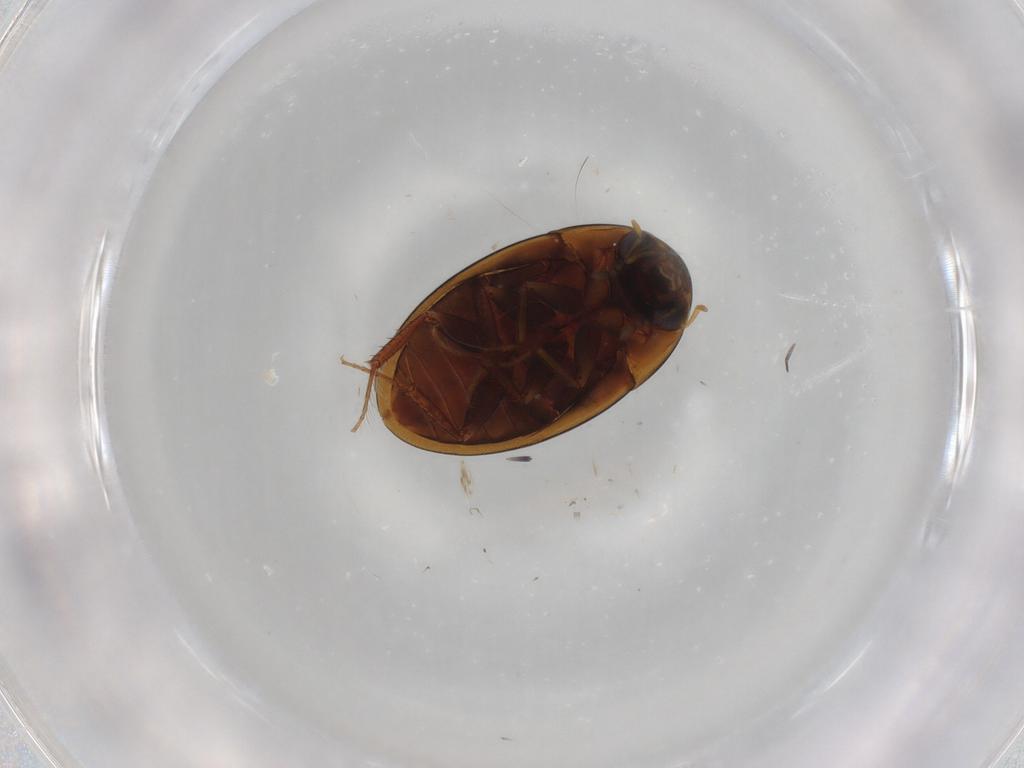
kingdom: Animalia
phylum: Arthropoda
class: Insecta
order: Coleoptera
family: Hydrophilidae
